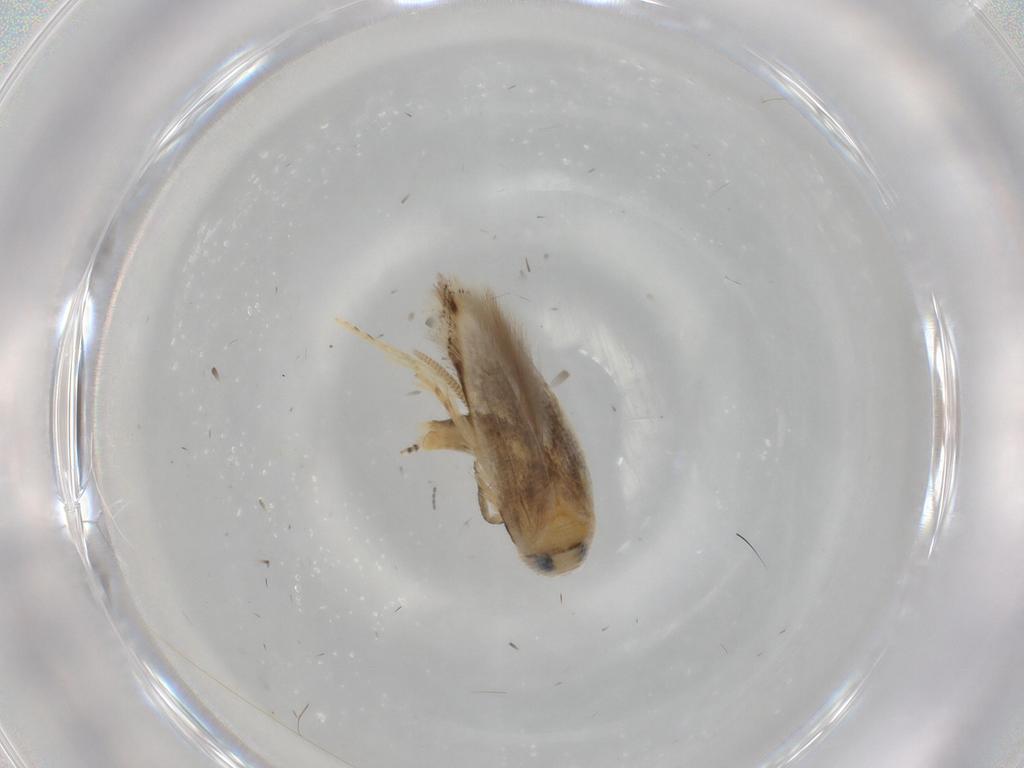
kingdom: Animalia
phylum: Arthropoda
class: Insecta
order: Lepidoptera
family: Opostegidae
